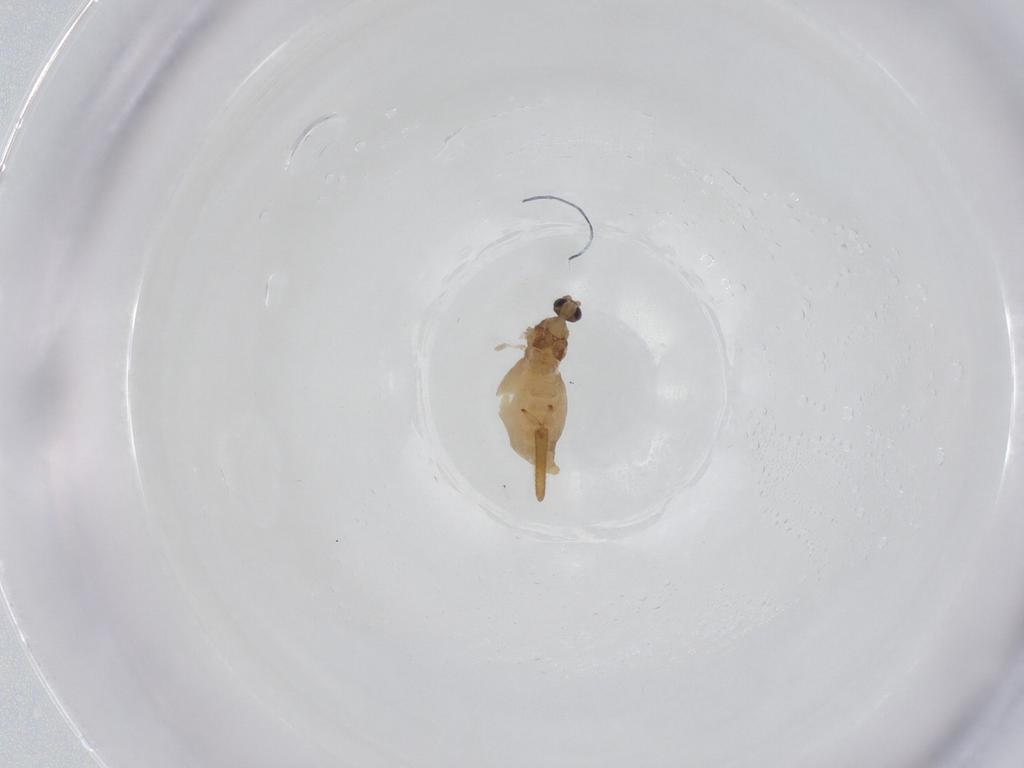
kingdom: Animalia
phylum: Arthropoda
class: Insecta
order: Diptera
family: Cecidomyiidae
